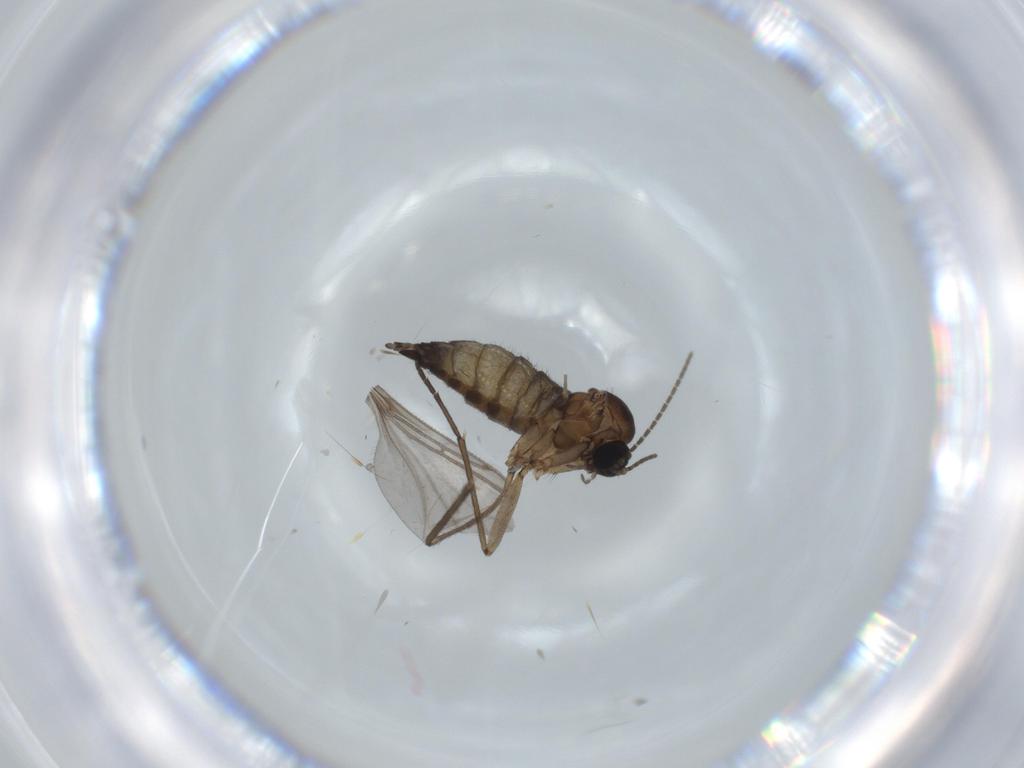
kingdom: Animalia
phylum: Arthropoda
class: Insecta
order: Diptera
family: Sciaridae
